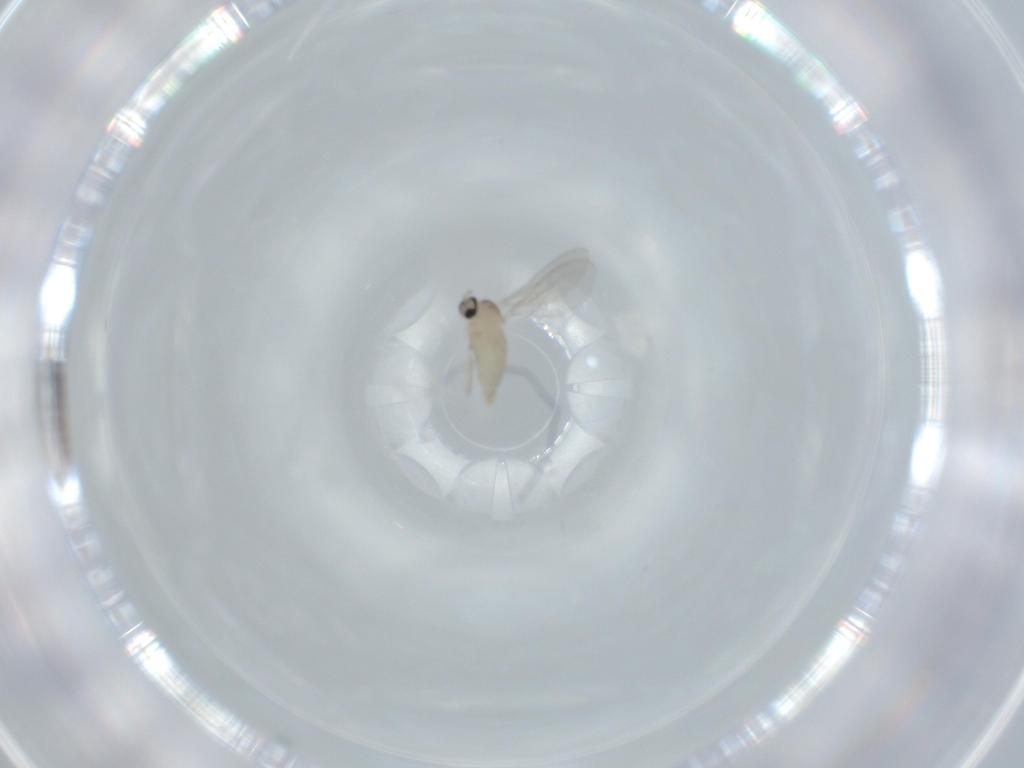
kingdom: Animalia
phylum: Arthropoda
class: Insecta
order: Diptera
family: Cecidomyiidae
